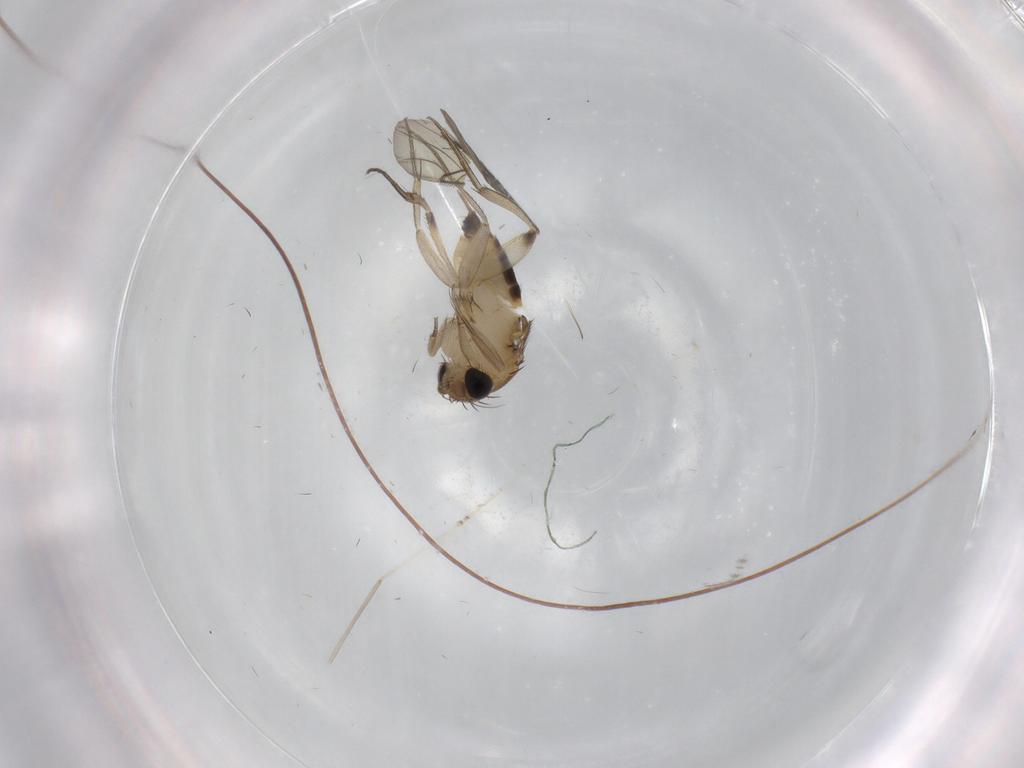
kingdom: Animalia
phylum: Arthropoda
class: Insecta
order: Diptera
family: Phoridae
